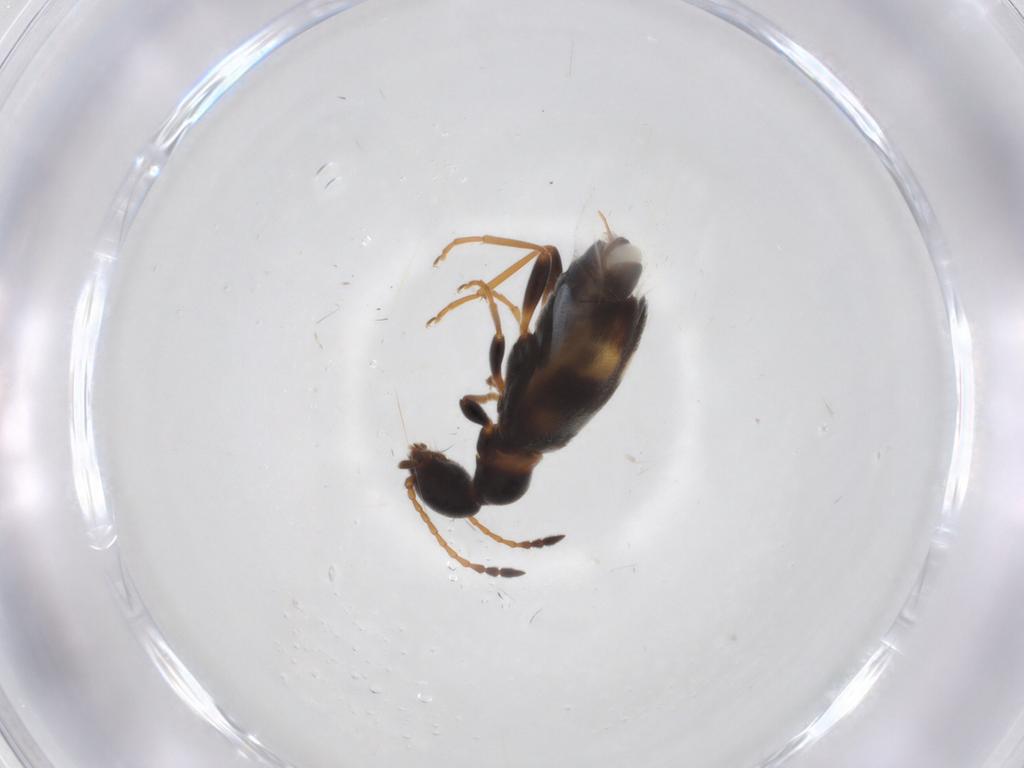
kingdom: Animalia
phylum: Arthropoda
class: Insecta
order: Coleoptera
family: Anthicidae
